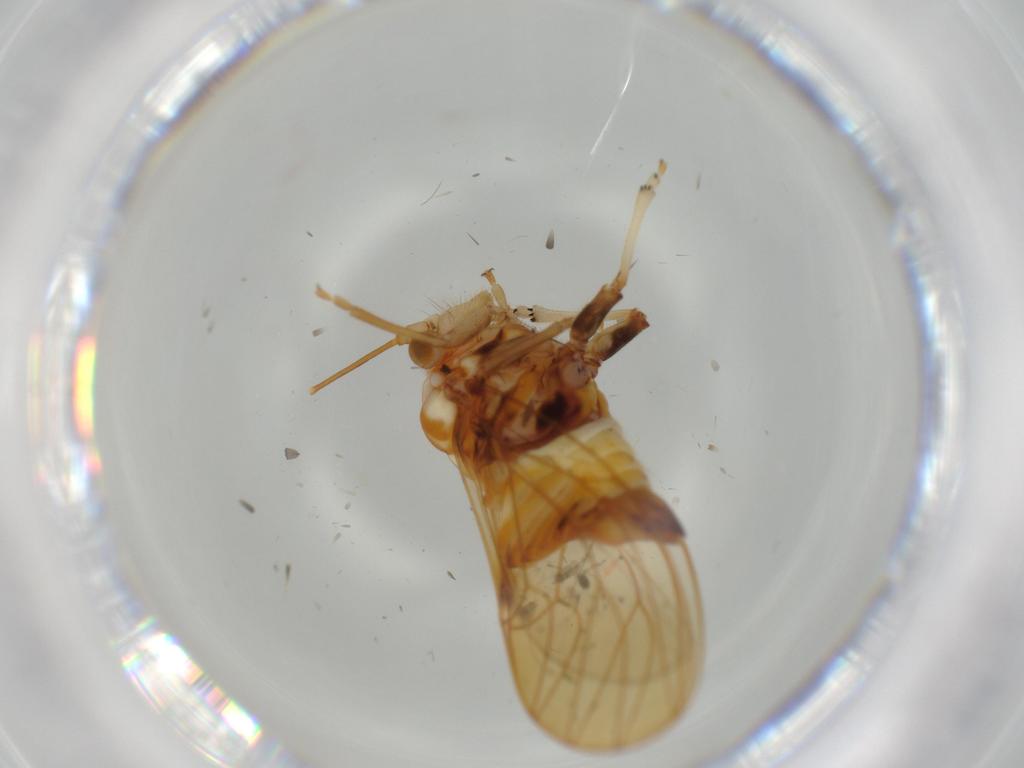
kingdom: Animalia
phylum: Arthropoda
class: Insecta
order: Hemiptera
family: Psyllidae
